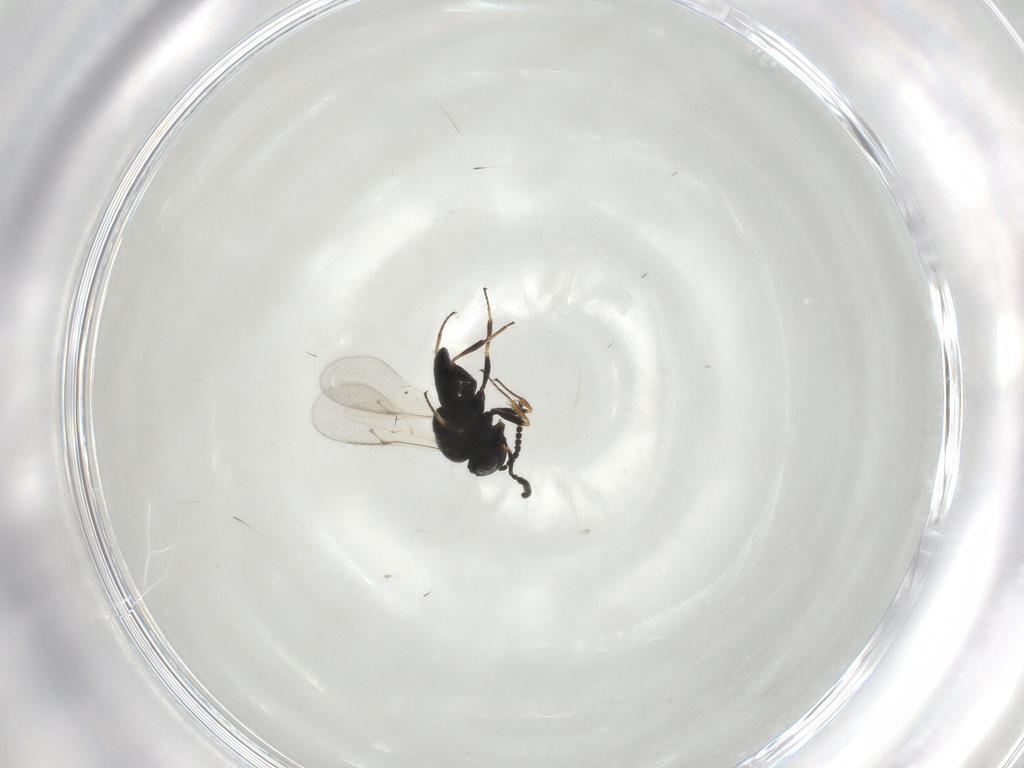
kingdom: Animalia
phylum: Arthropoda
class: Insecta
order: Hymenoptera
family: Scelionidae
